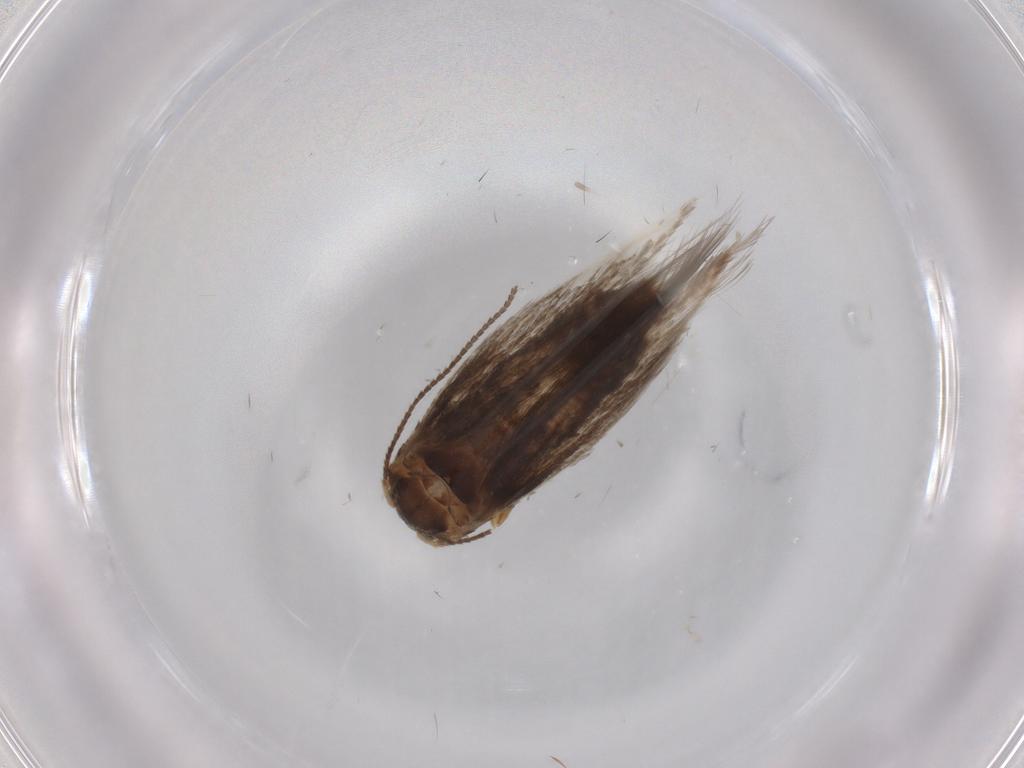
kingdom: Animalia
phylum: Arthropoda
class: Insecta
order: Lepidoptera
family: Nepticulidae
